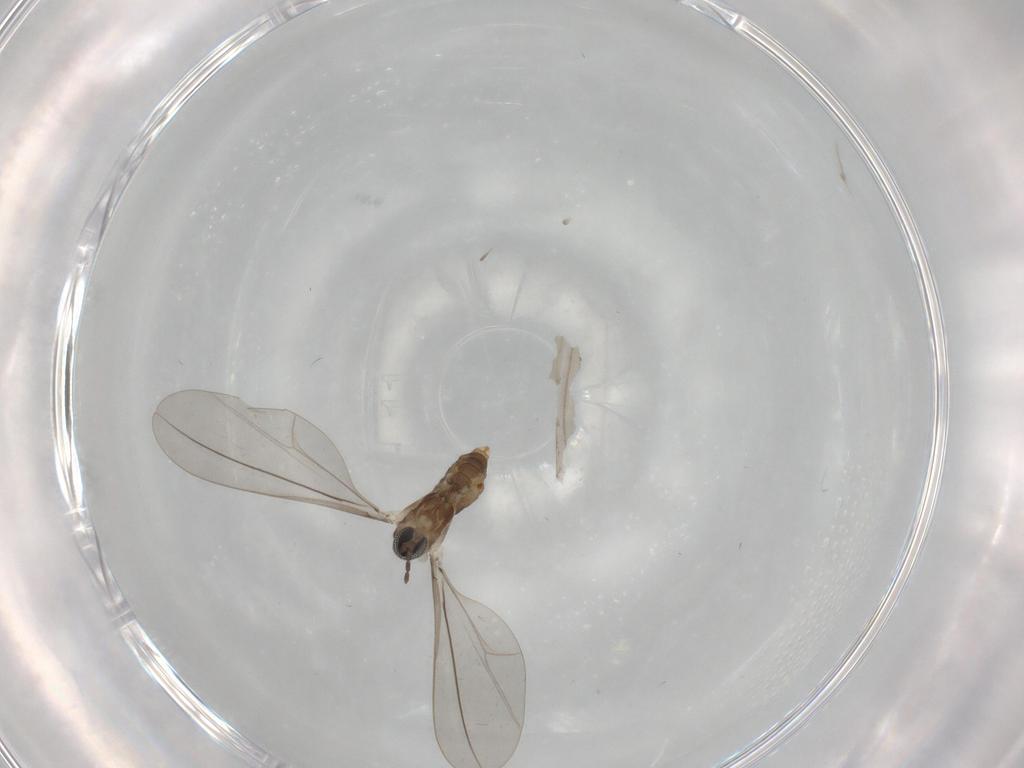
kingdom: Animalia
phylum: Arthropoda
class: Insecta
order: Diptera
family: Cecidomyiidae
